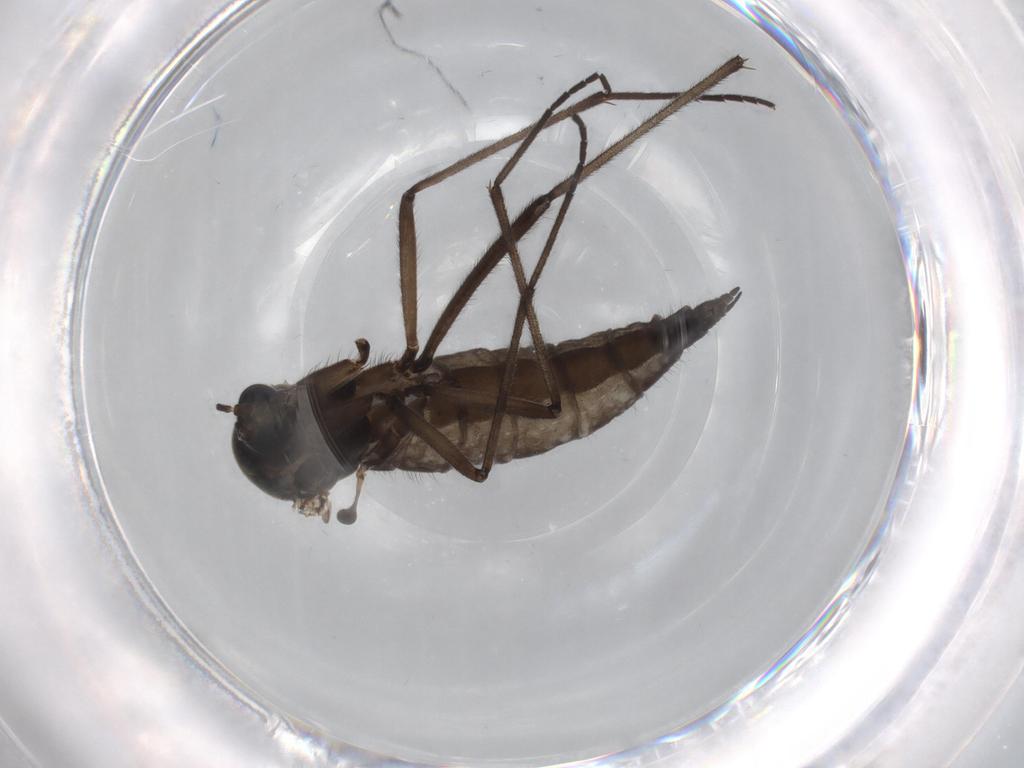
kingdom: Animalia
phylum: Arthropoda
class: Insecta
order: Diptera
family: Sciaridae
